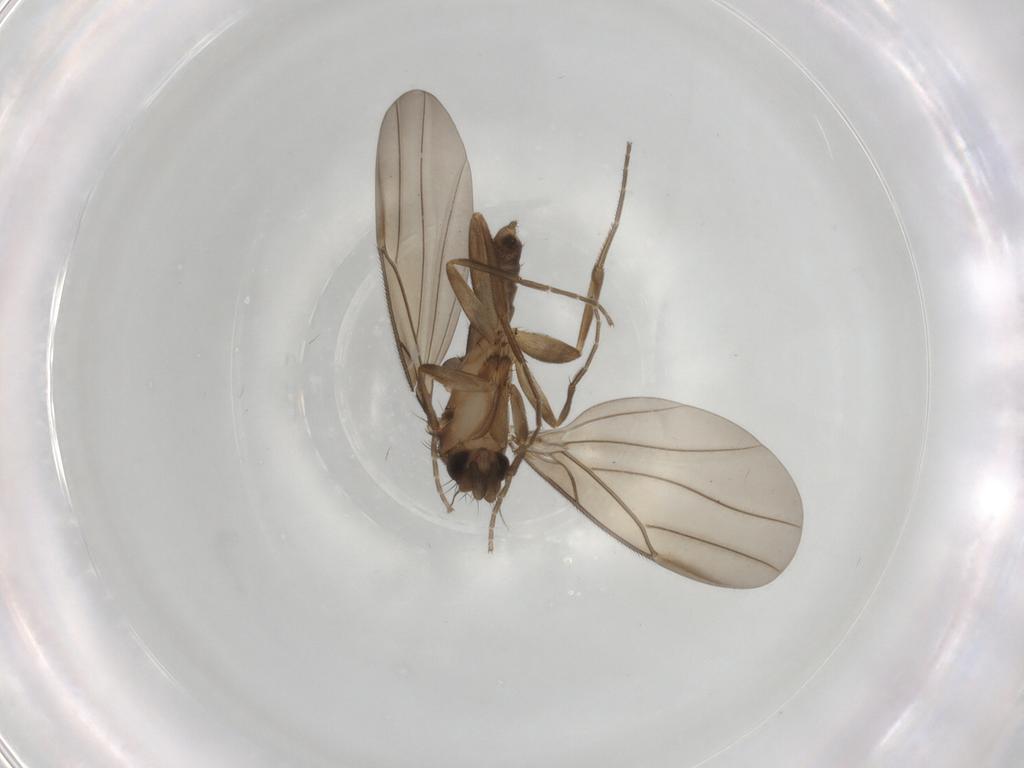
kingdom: Animalia
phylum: Arthropoda
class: Insecta
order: Diptera
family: Phoridae
